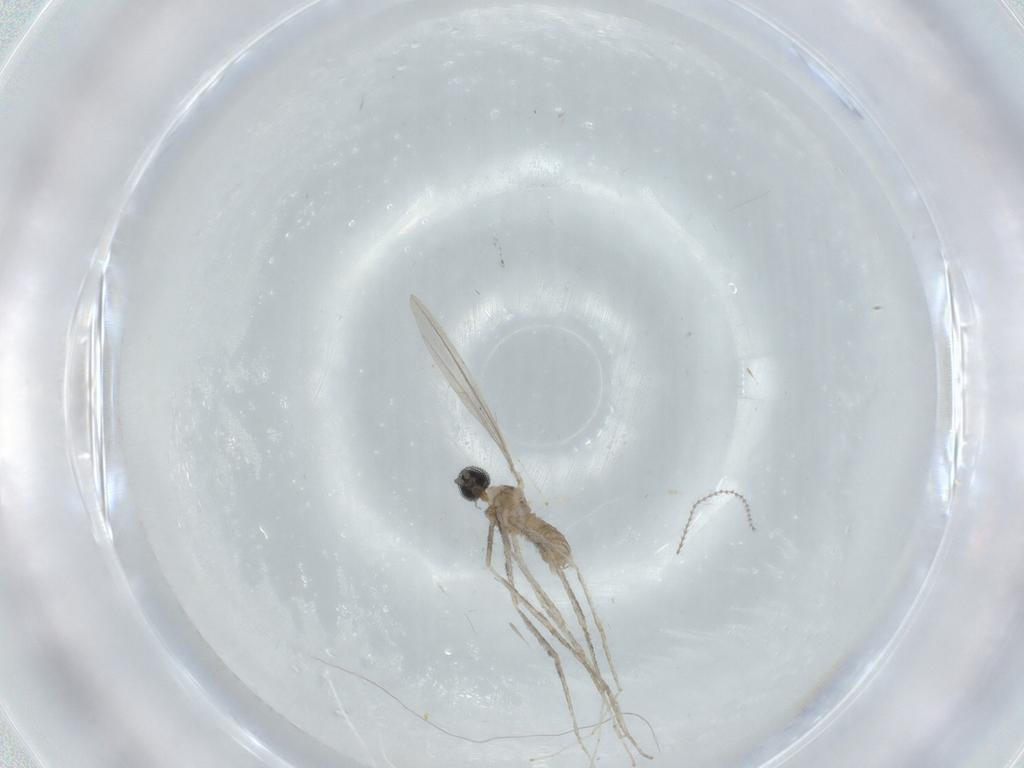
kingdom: Animalia
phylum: Arthropoda
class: Insecta
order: Diptera
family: Cecidomyiidae
